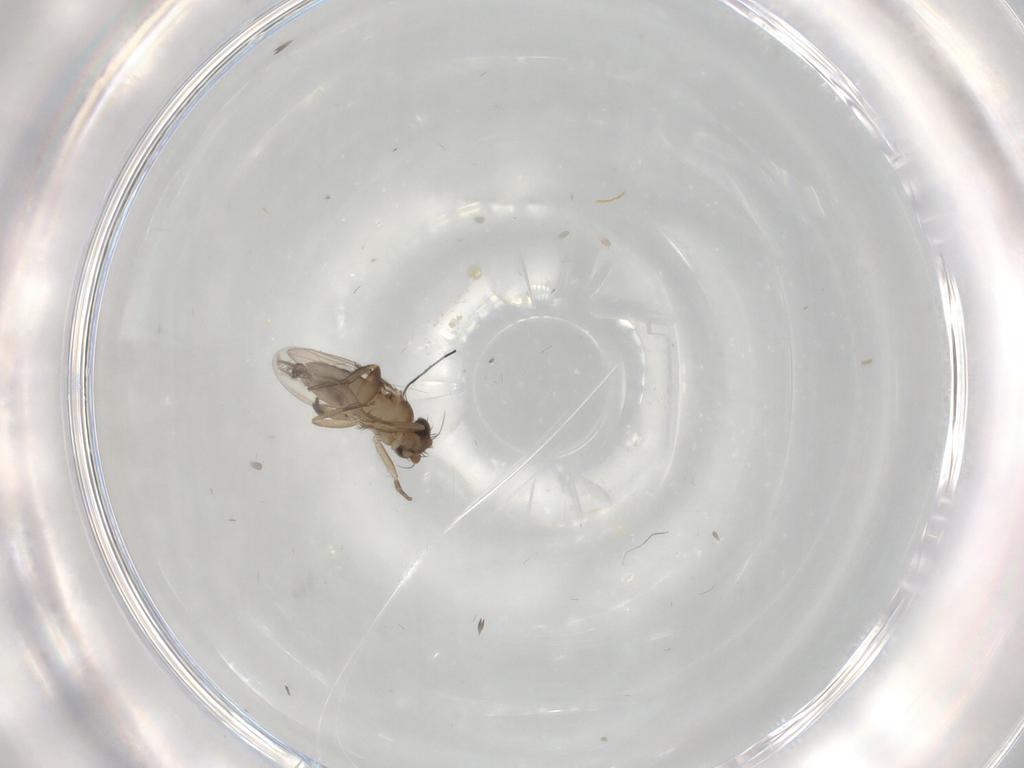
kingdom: Animalia
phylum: Arthropoda
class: Insecta
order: Diptera
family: Phoridae
